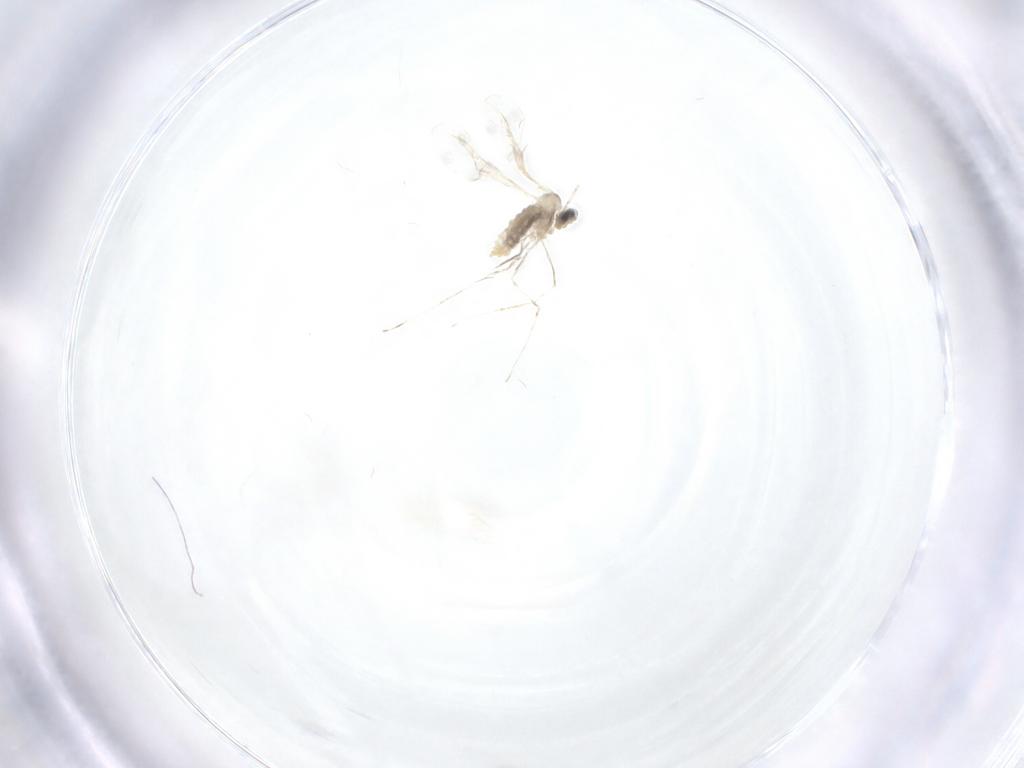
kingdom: Animalia
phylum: Arthropoda
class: Insecta
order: Diptera
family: Cecidomyiidae
